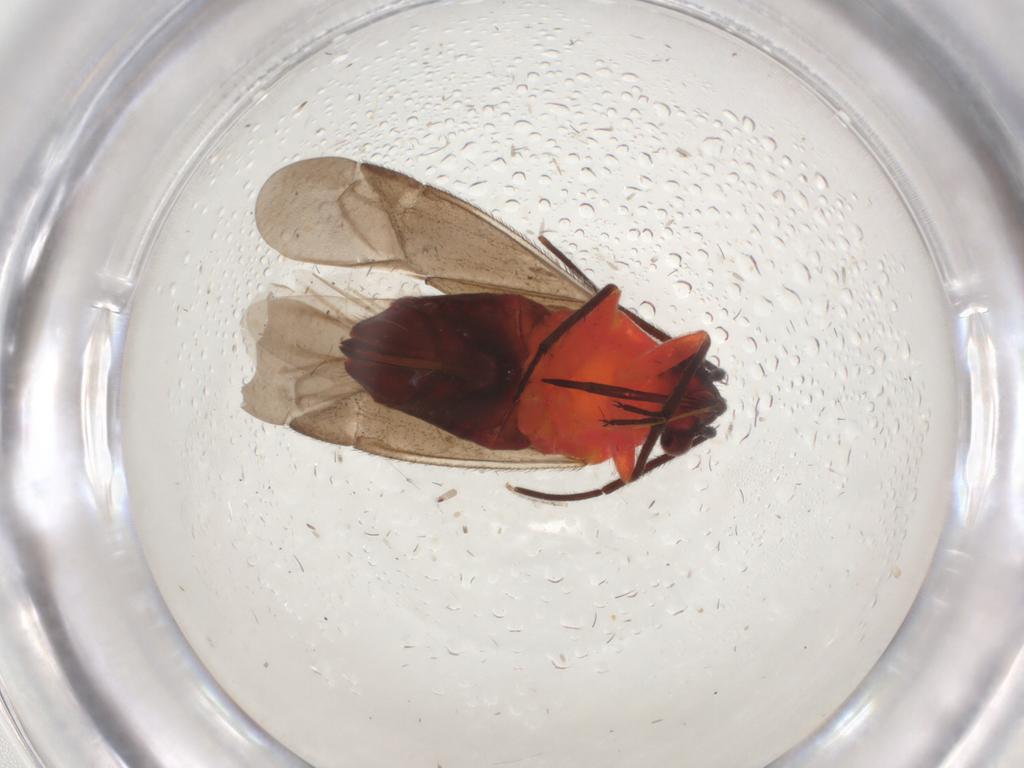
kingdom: Animalia
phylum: Arthropoda
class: Insecta
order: Hemiptera
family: Miridae
